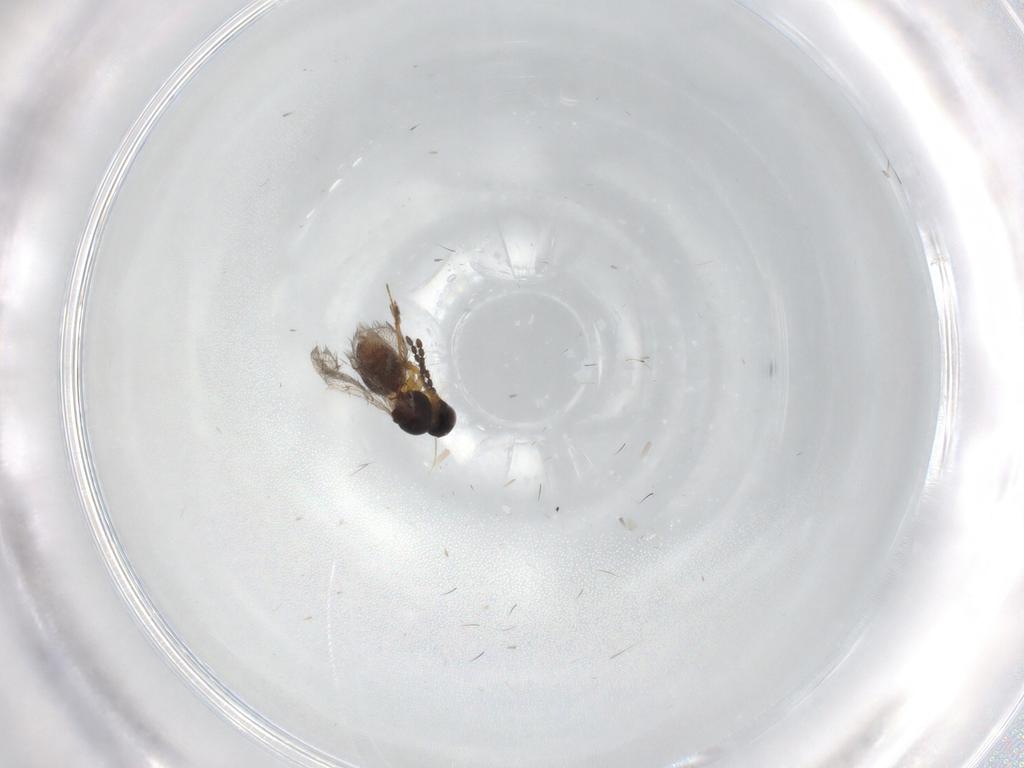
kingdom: Animalia
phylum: Arthropoda
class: Insecta
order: Hymenoptera
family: Figitidae
